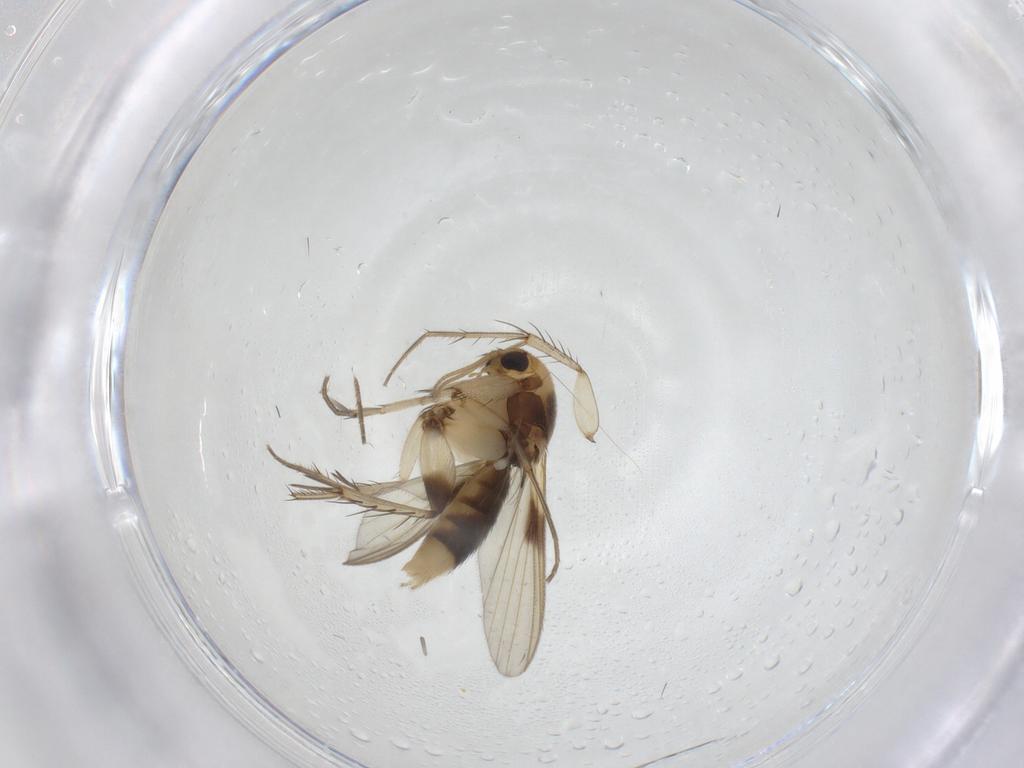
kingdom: Animalia
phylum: Arthropoda
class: Insecta
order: Diptera
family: Mycetophilidae
